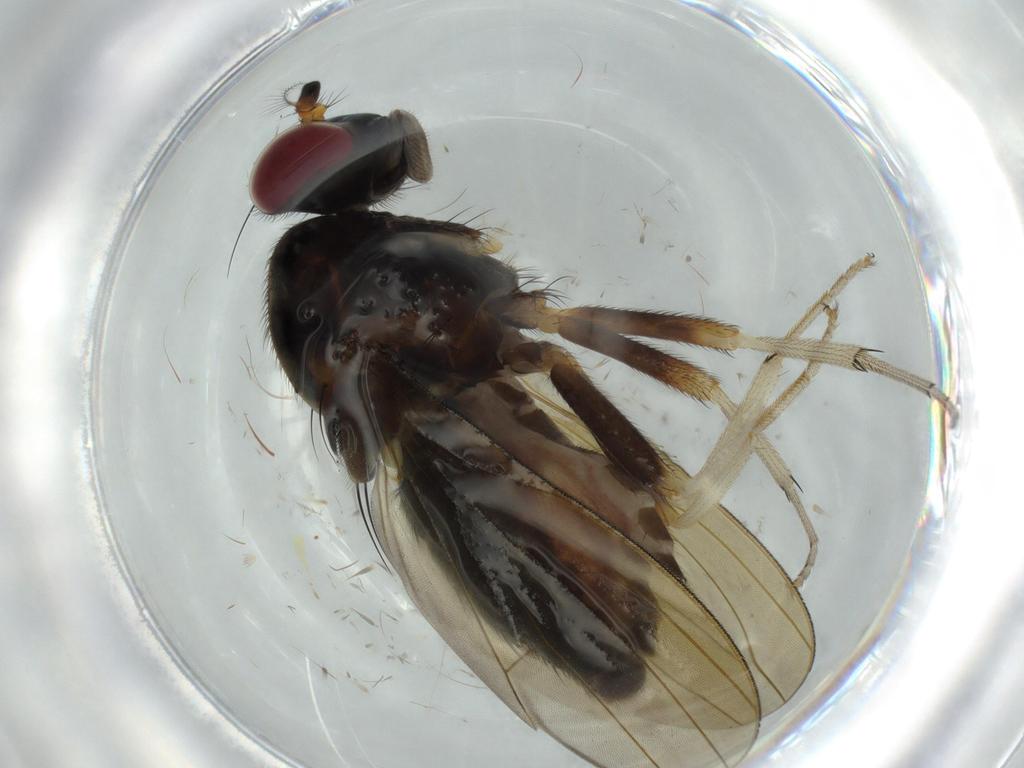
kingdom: Animalia
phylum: Arthropoda
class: Insecta
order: Diptera
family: Cecidomyiidae
